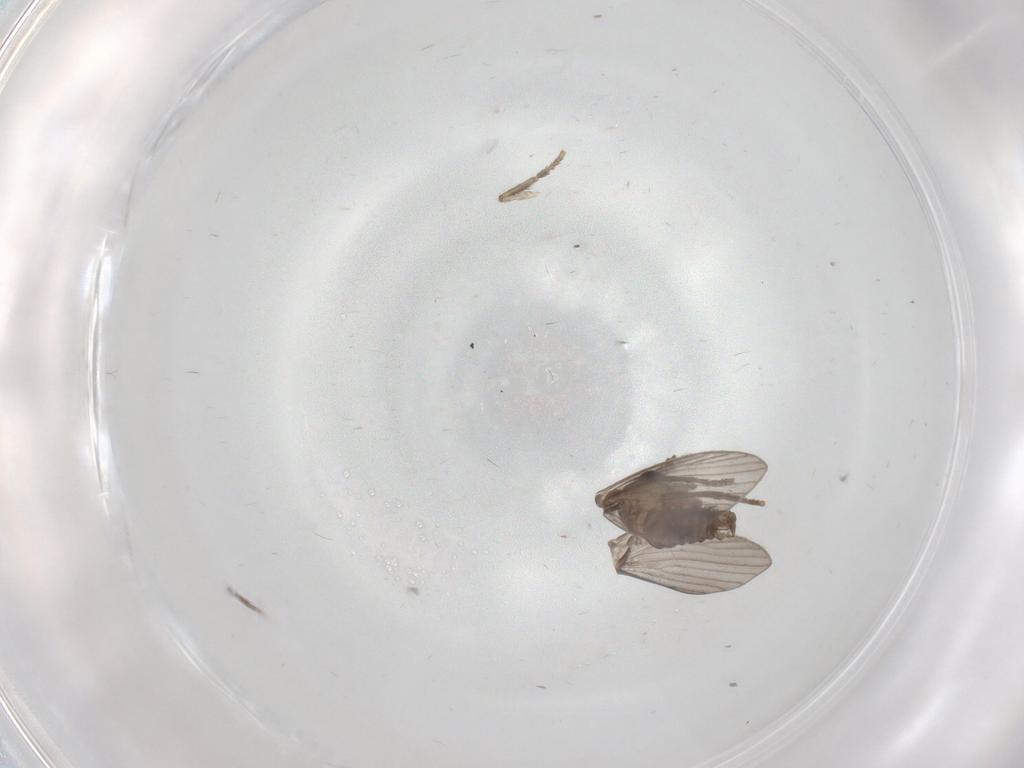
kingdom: Animalia
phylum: Arthropoda
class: Insecta
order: Diptera
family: Psychodidae
